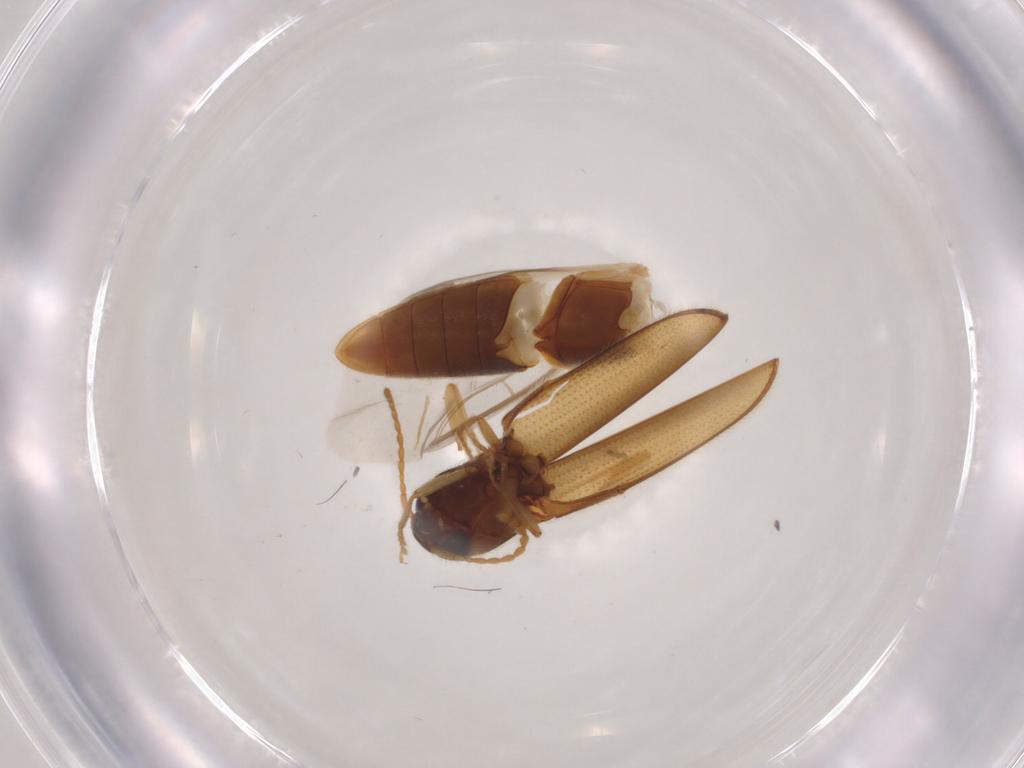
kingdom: Animalia
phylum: Arthropoda
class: Insecta
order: Coleoptera
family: Elateridae
